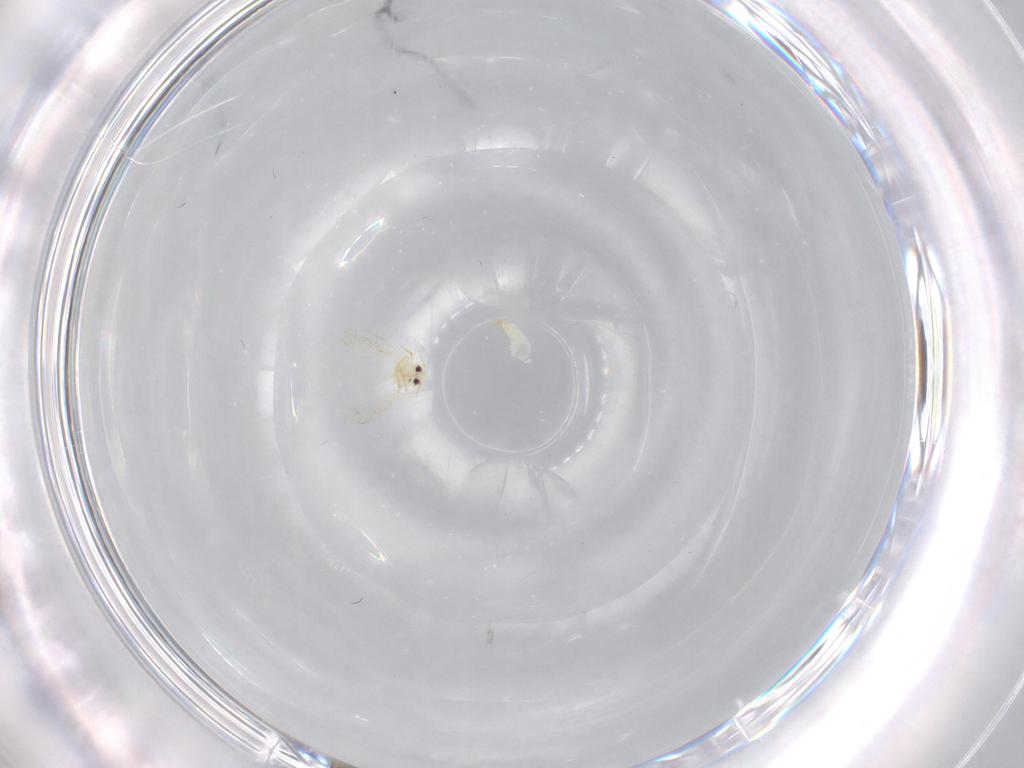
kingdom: Animalia
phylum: Arthropoda
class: Insecta
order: Hemiptera
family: Aleyrodidae
